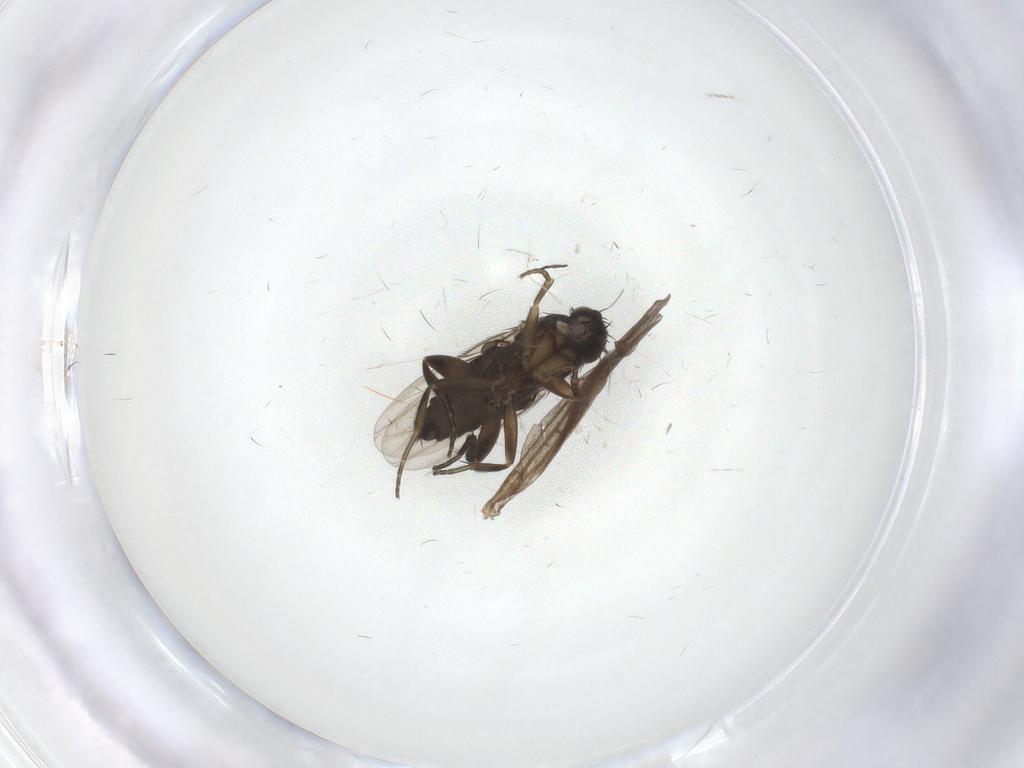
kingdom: Animalia
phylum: Arthropoda
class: Insecta
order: Diptera
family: Phoridae
